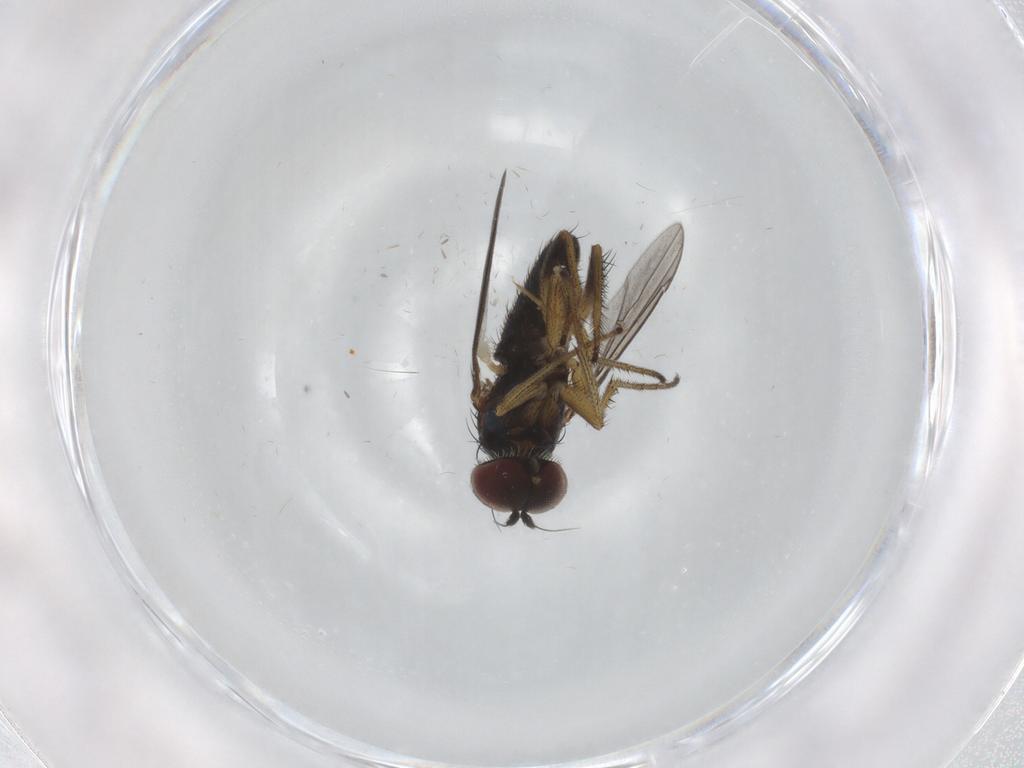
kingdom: Animalia
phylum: Arthropoda
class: Insecta
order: Diptera
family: Dolichopodidae
